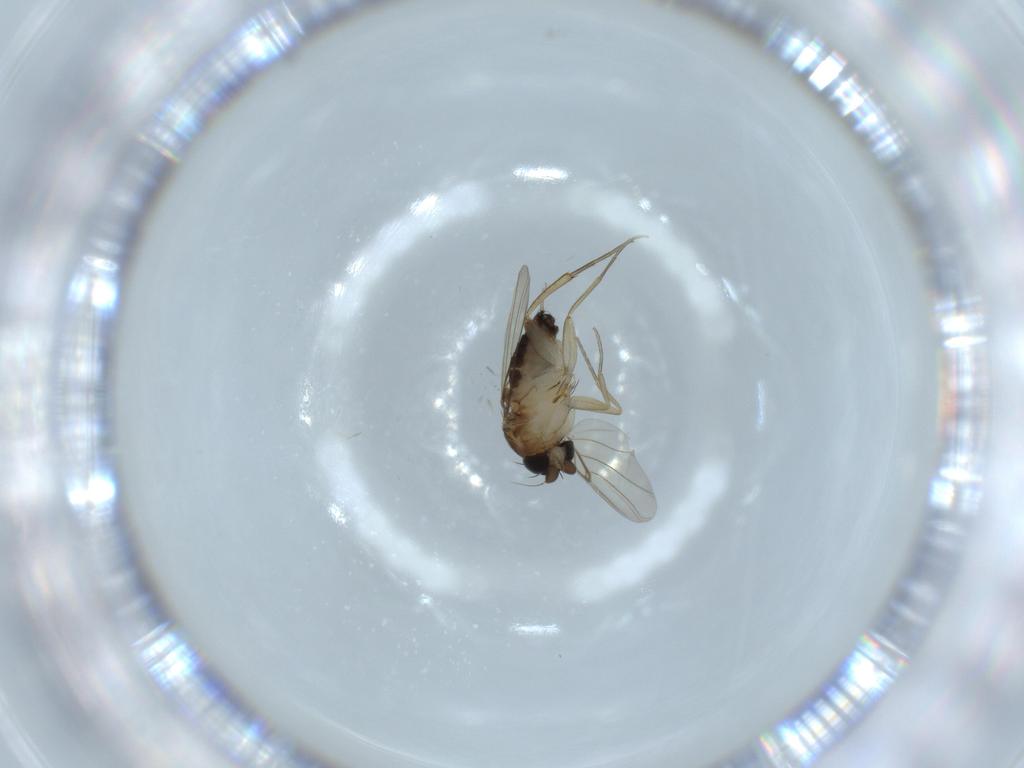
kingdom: Animalia
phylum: Arthropoda
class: Insecta
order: Diptera
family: Phoridae
